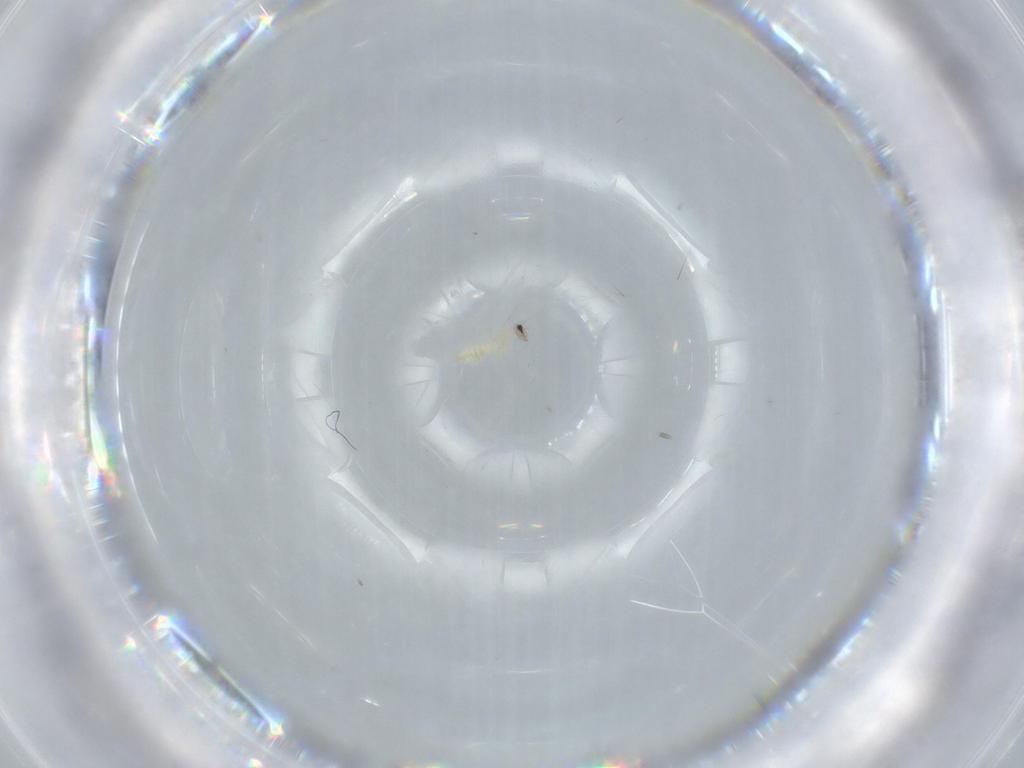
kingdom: Animalia
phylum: Arthropoda
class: Insecta
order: Diptera
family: Cecidomyiidae
